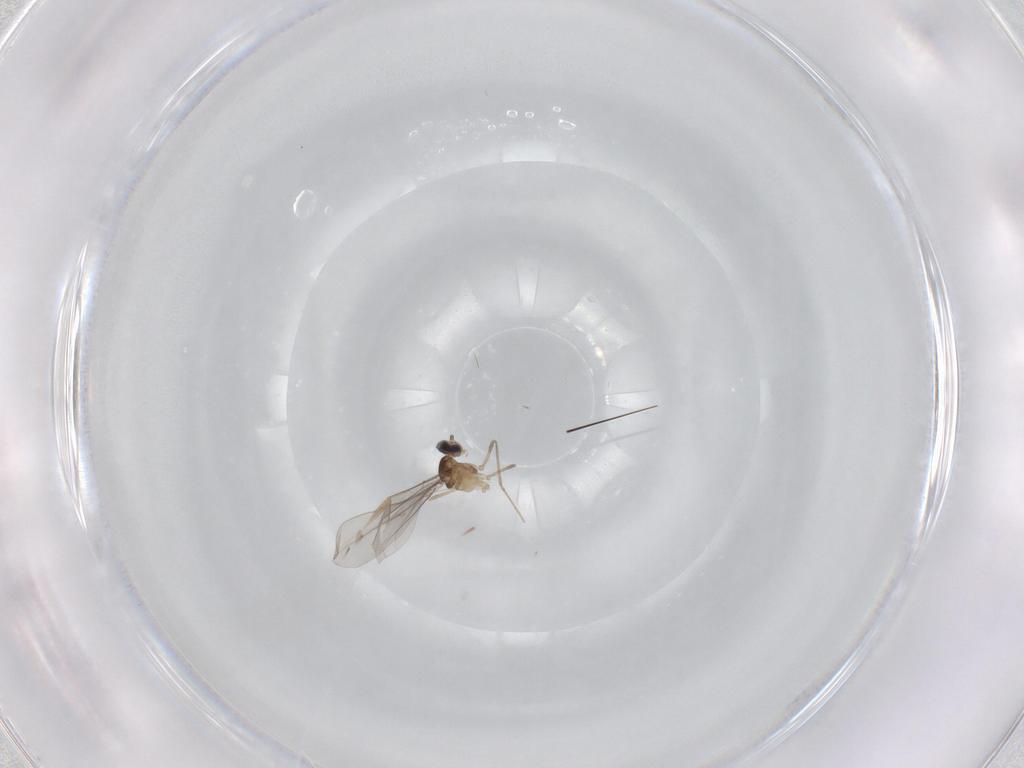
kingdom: Animalia
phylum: Arthropoda
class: Insecta
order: Diptera
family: Cecidomyiidae
